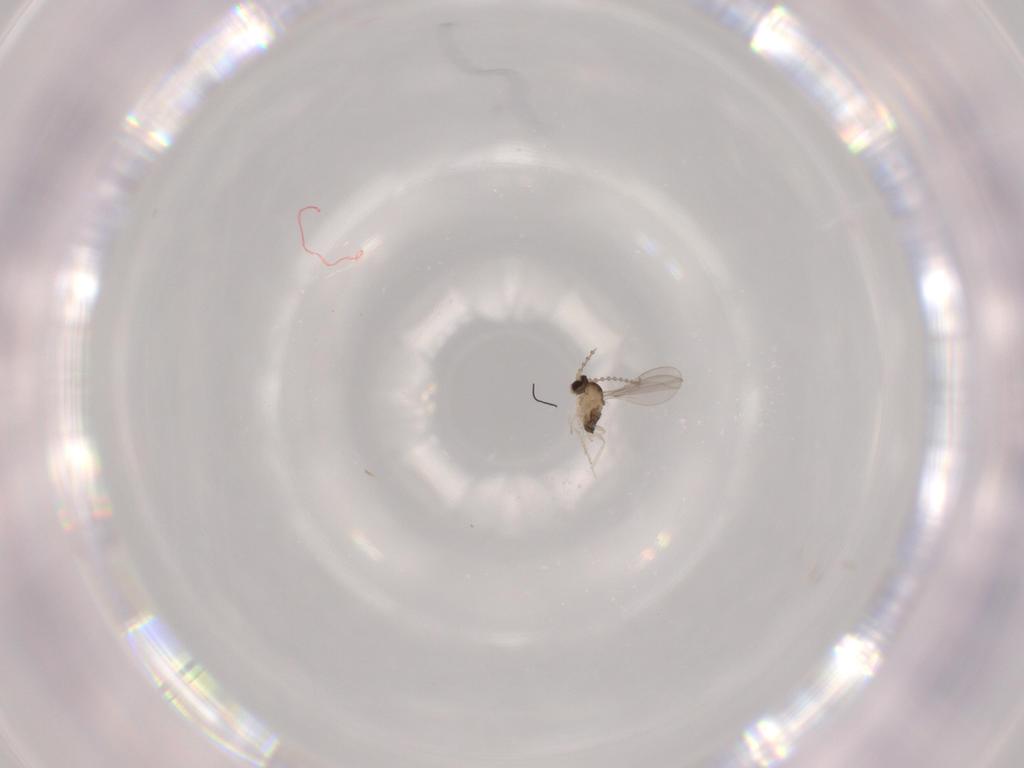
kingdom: Animalia
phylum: Arthropoda
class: Insecta
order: Diptera
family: Cecidomyiidae
